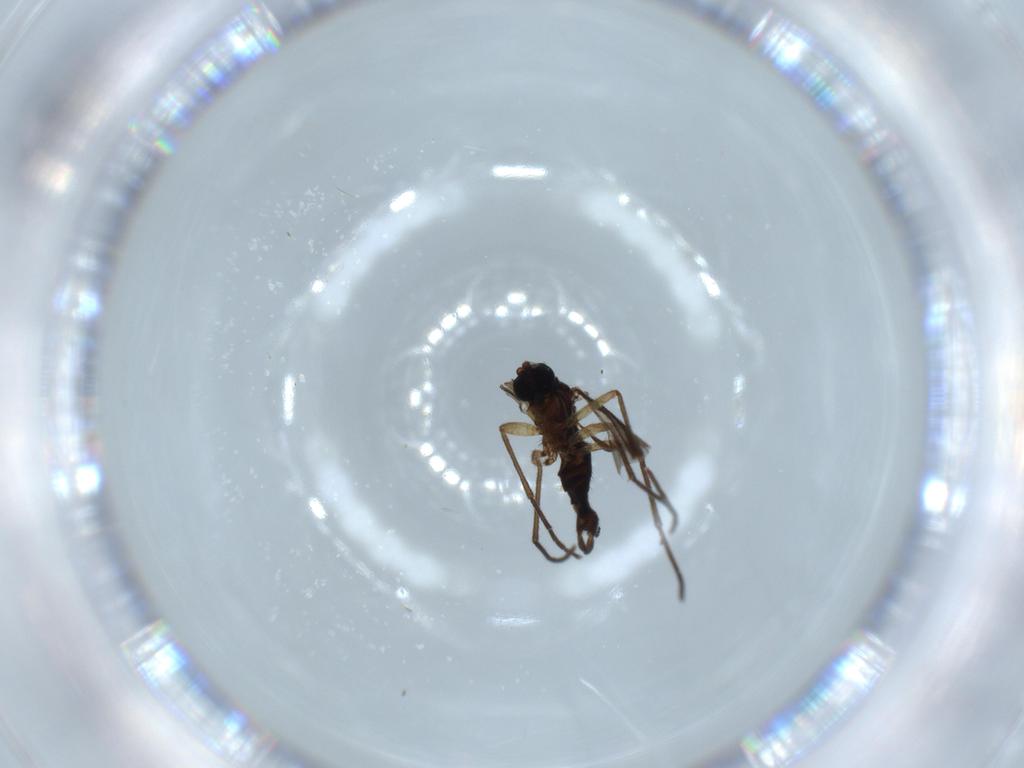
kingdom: Animalia
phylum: Arthropoda
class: Insecta
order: Diptera
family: Sciaridae
